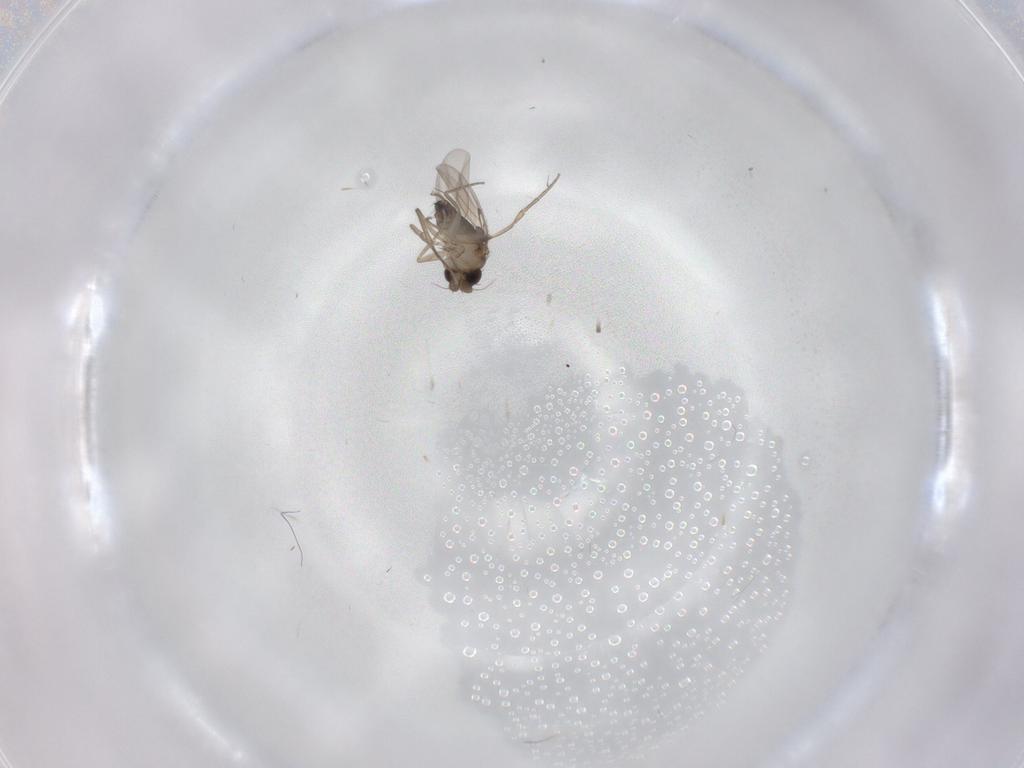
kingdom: Animalia
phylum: Arthropoda
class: Insecta
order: Diptera
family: Phoridae
